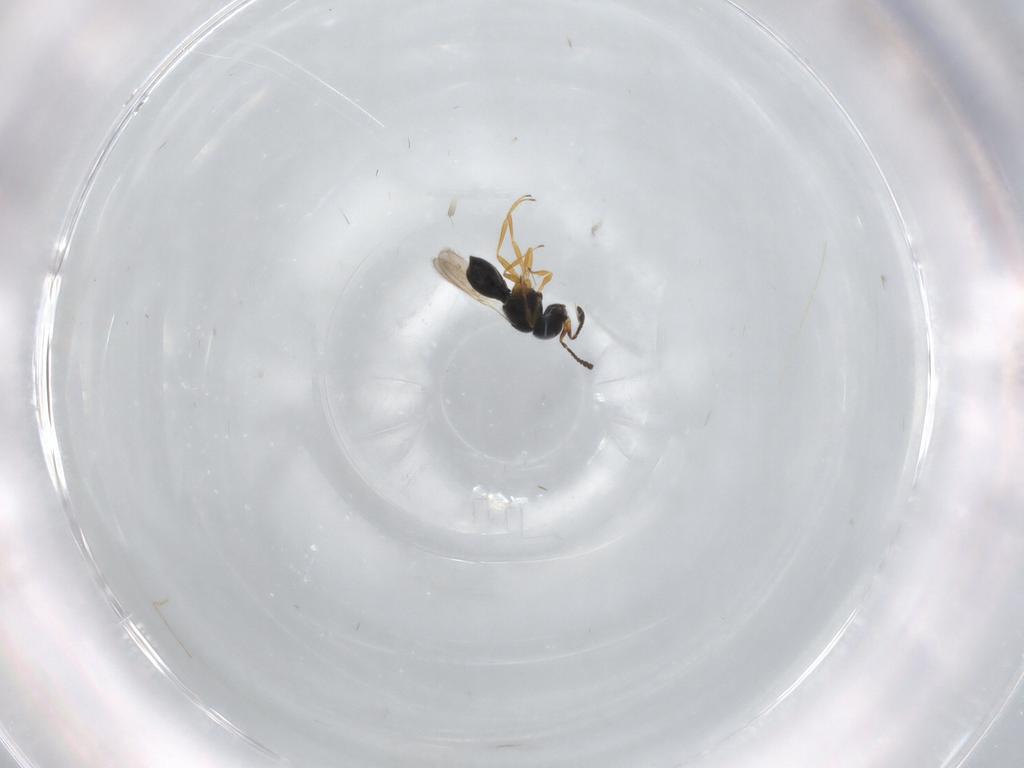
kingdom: Animalia
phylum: Arthropoda
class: Insecta
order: Hymenoptera
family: Scelionidae
